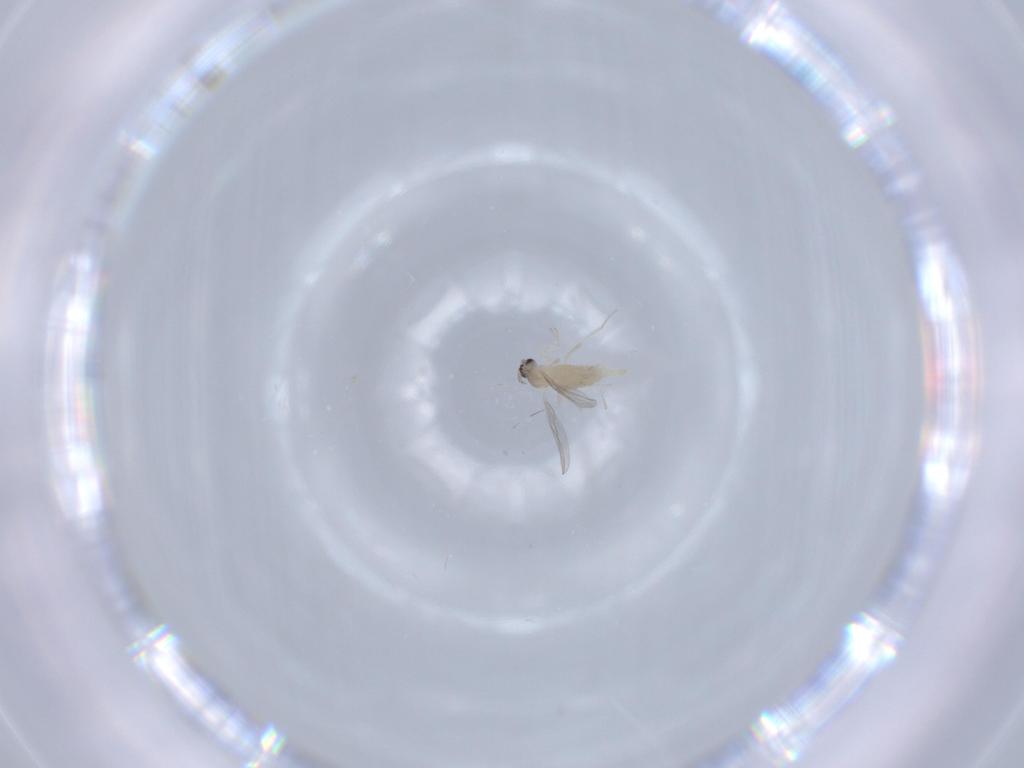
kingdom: Animalia
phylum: Arthropoda
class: Insecta
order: Diptera
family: Cecidomyiidae
